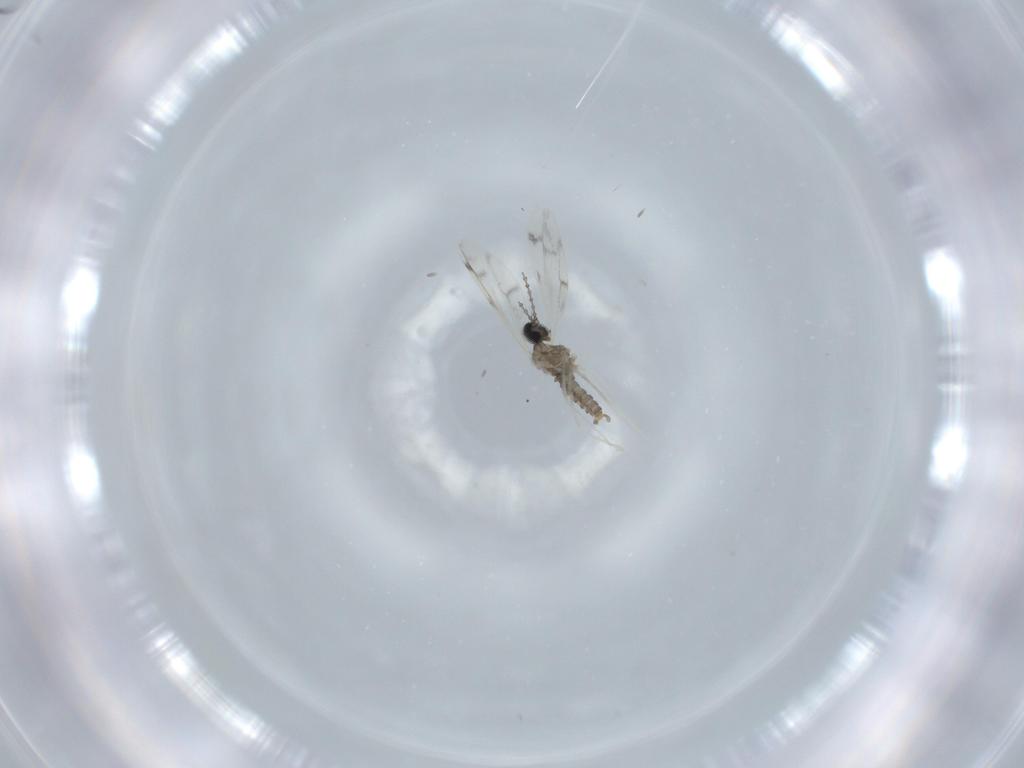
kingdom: Animalia
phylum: Arthropoda
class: Insecta
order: Diptera
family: Cecidomyiidae
